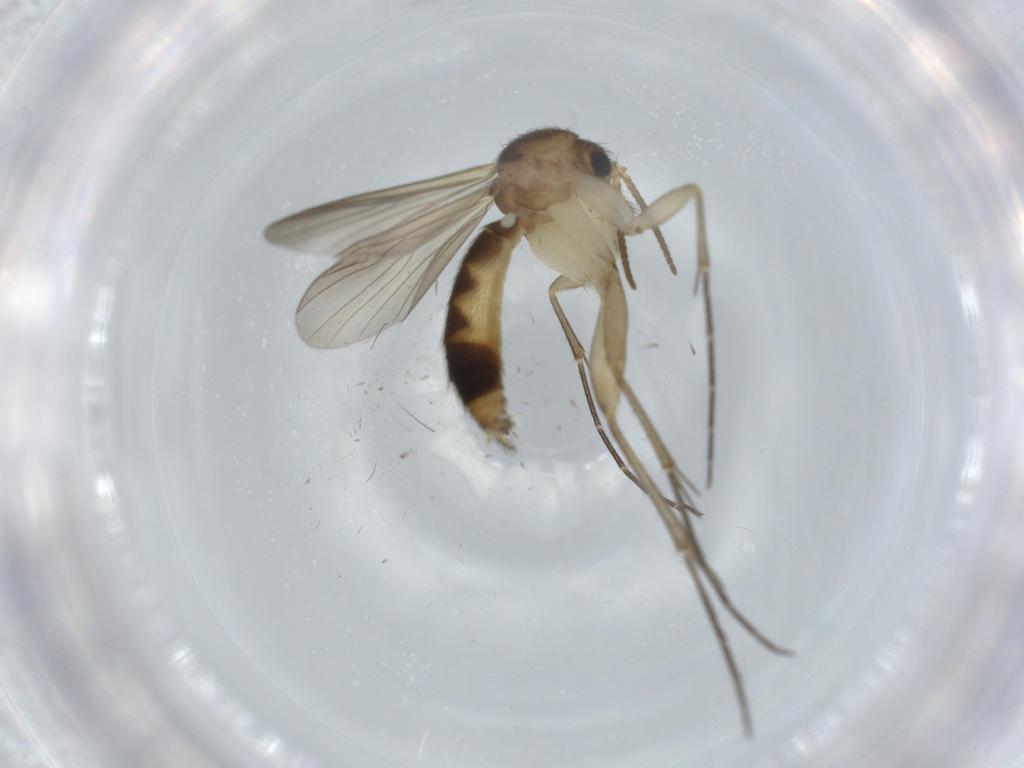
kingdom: Animalia
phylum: Arthropoda
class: Insecta
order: Diptera
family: Mycetophilidae
